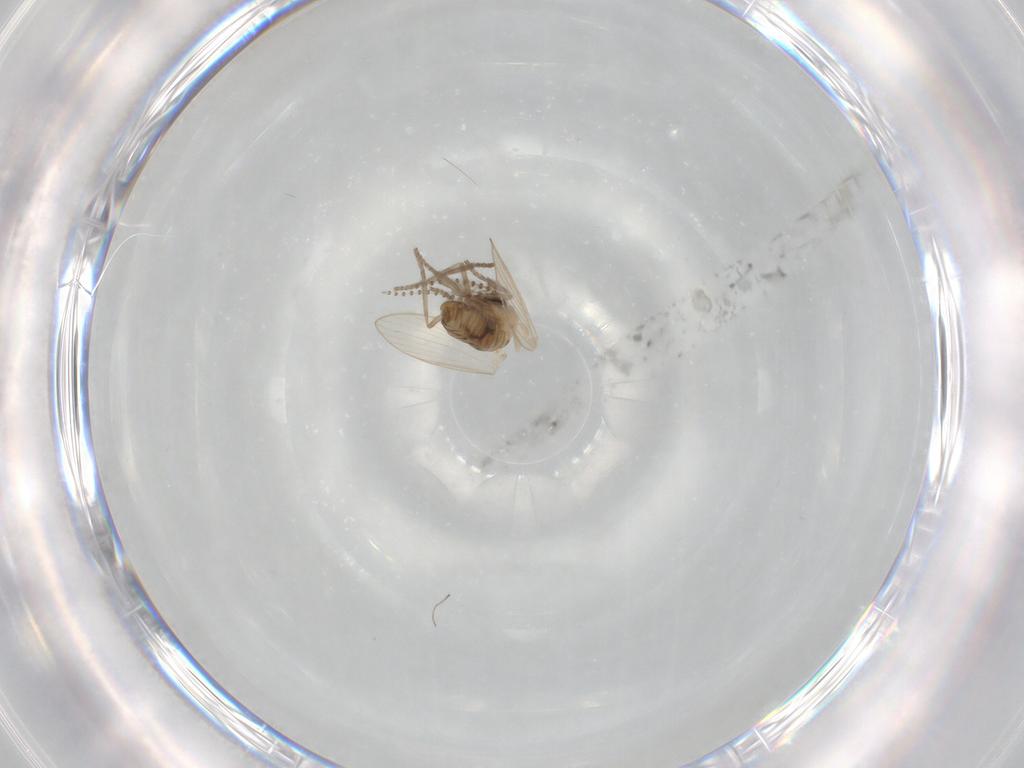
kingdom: Animalia
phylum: Arthropoda
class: Insecta
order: Diptera
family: Psychodidae
